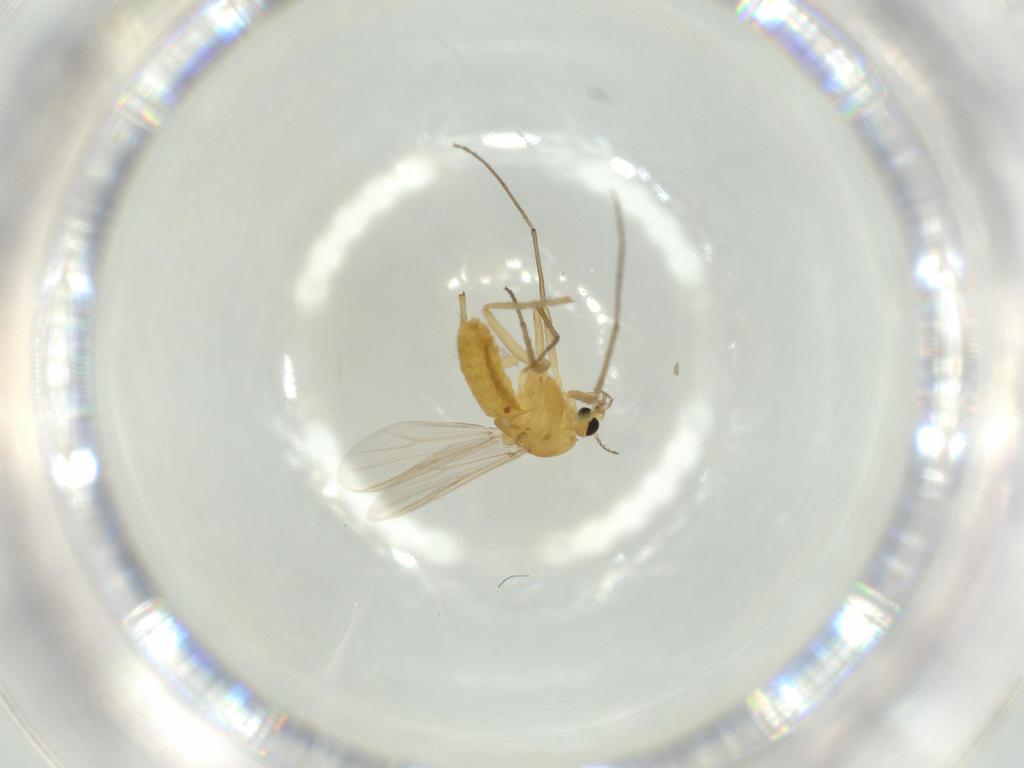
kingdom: Animalia
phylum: Arthropoda
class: Insecta
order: Diptera
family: Chironomidae
